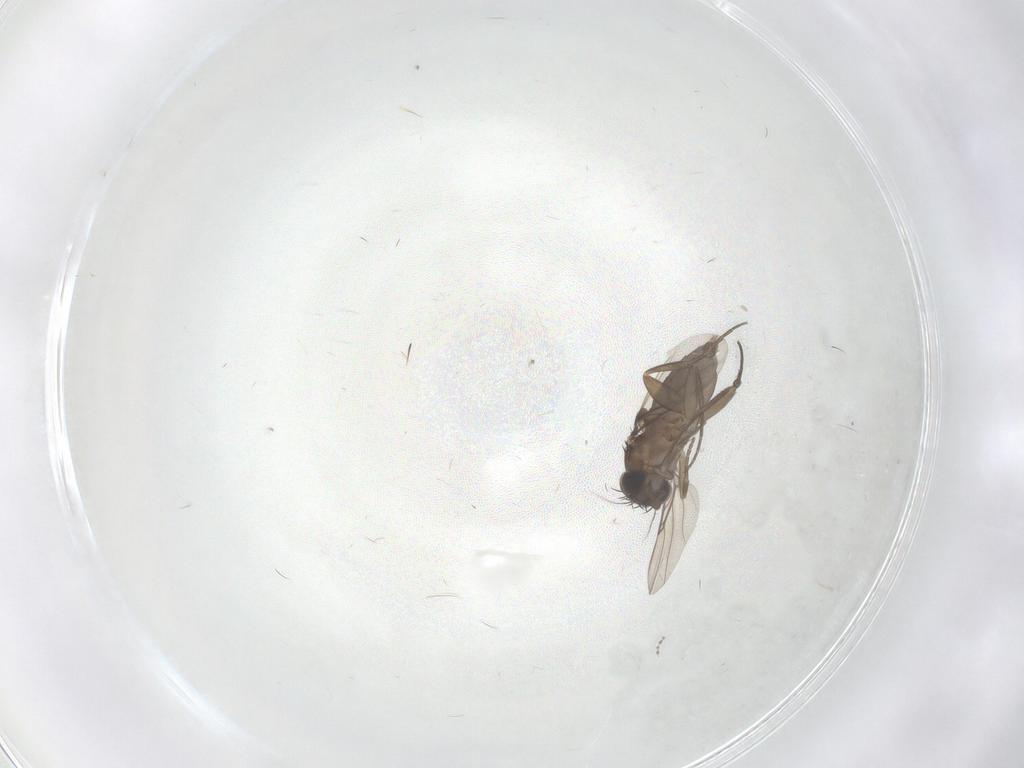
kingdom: Animalia
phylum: Arthropoda
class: Insecta
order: Diptera
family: Phoridae
